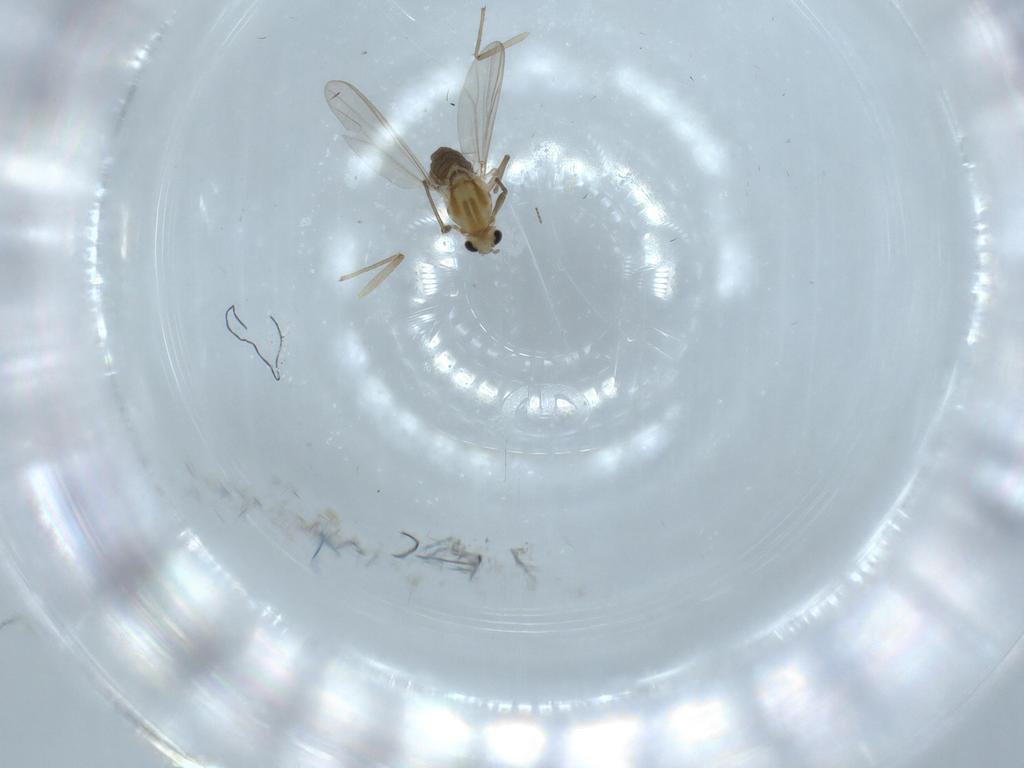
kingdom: Animalia
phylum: Arthropoda
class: Insecta
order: Diptera
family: Chironomidae
